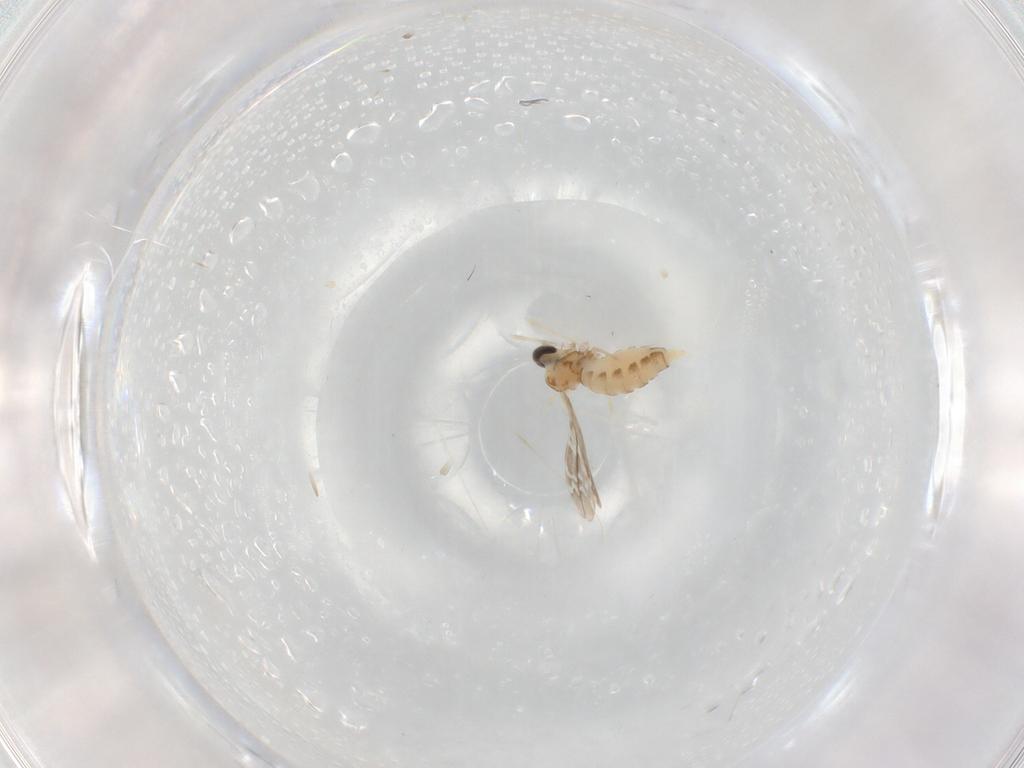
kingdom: Animalia
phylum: Arthropoda
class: Insecta
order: Diptera
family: Cecidomyiidae
